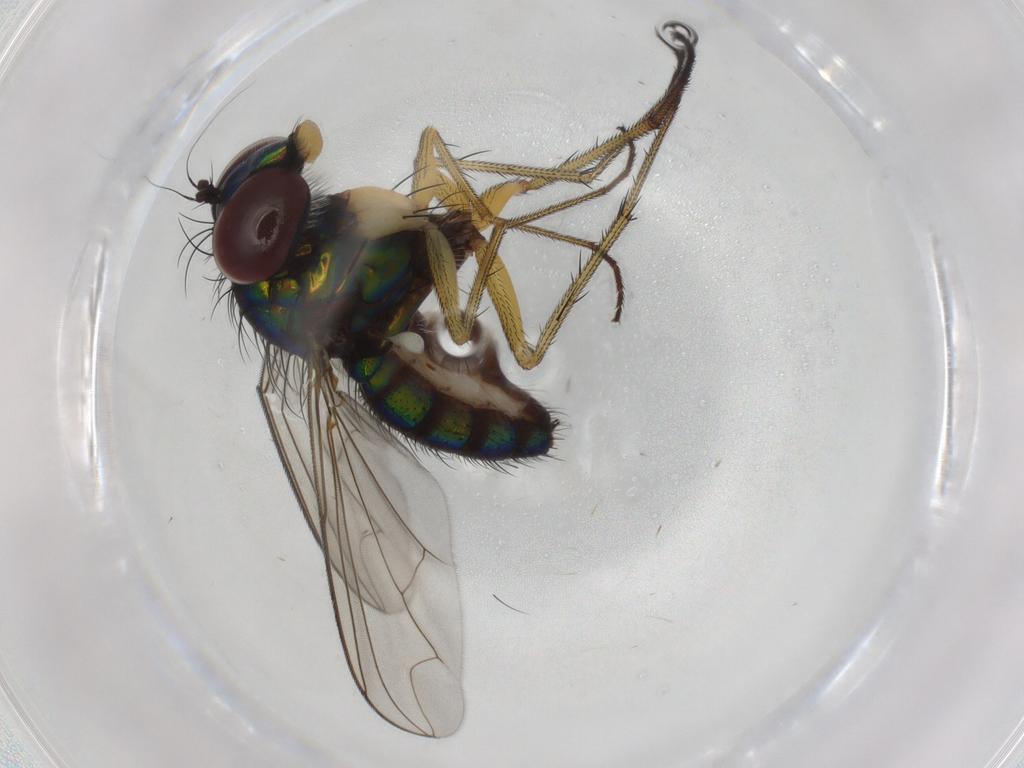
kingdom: Animalia
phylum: Arthropoda
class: Insecta
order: Diptera
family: Dolichopodidae
